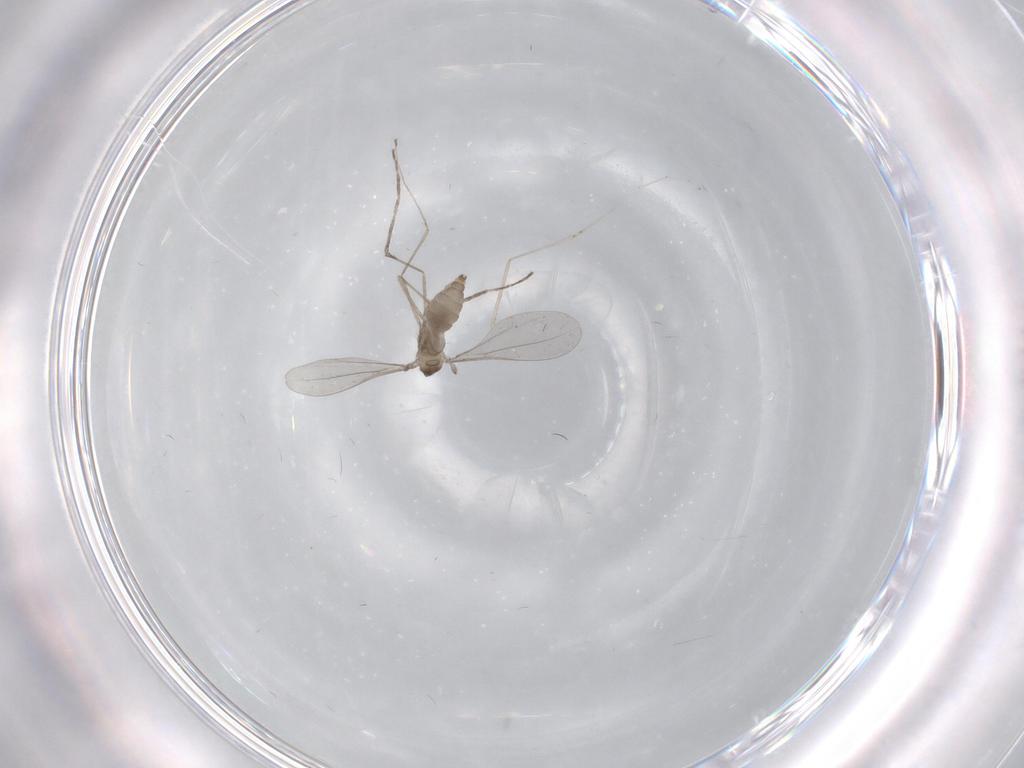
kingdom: Animalia
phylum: Arthropoda
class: Insecta
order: Diptera
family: Cecidomyiidae
